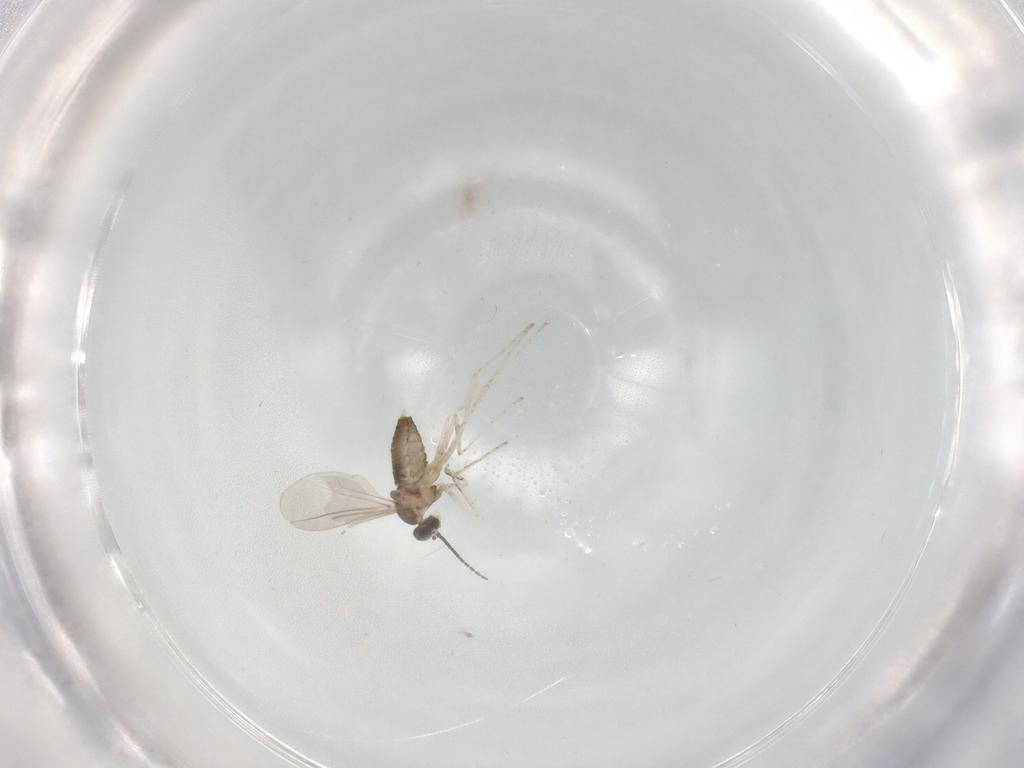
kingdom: Animalia
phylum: Arthropoda
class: Insecta
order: Diptera
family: Cecidomyiidae
